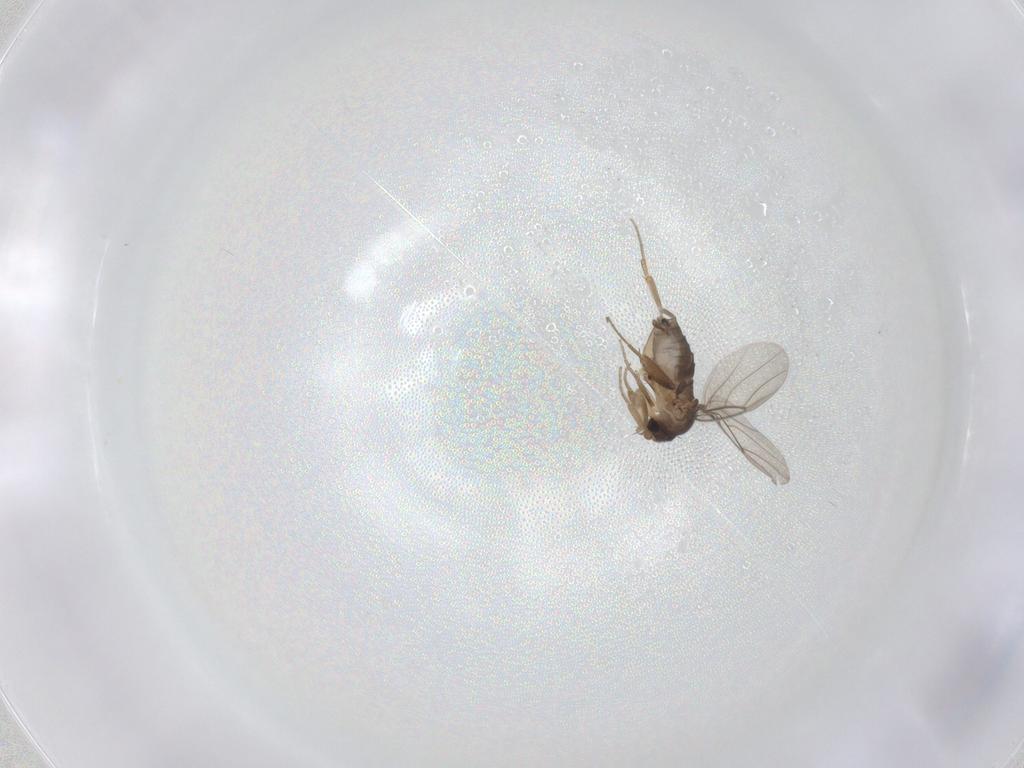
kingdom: Animalia
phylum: Arthropoda
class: Insecta
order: Diptera
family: Phoridae
